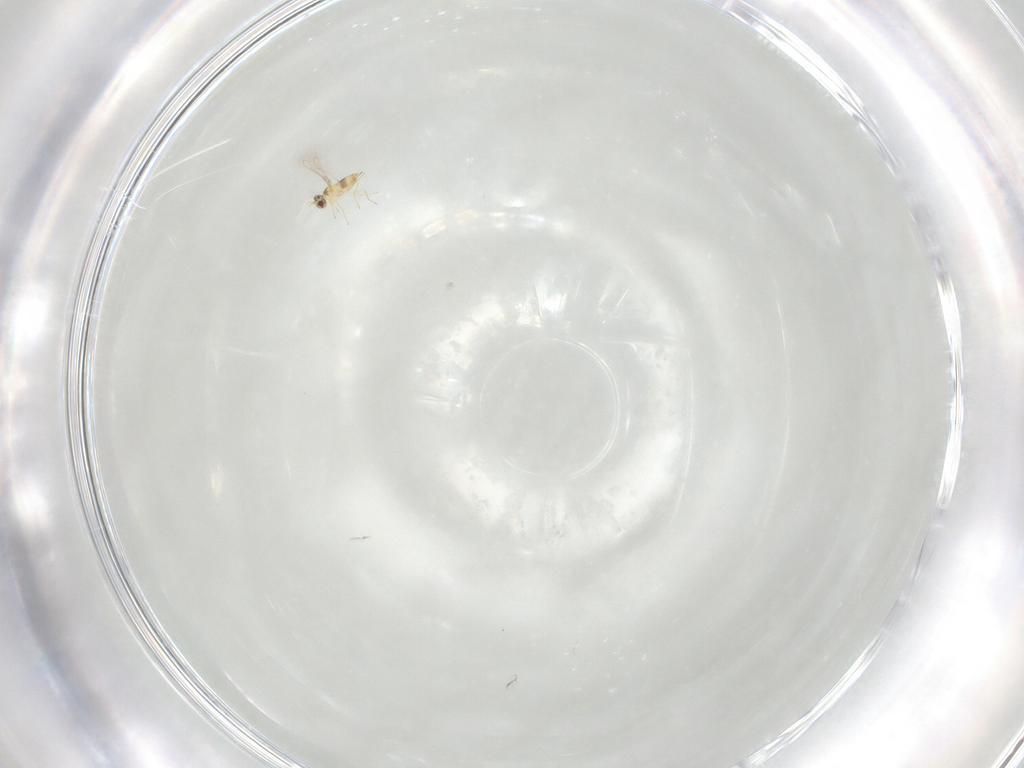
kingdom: Animalia
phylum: Arthropoda
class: Insecta
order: Hymenoptera
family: Mymaridae
